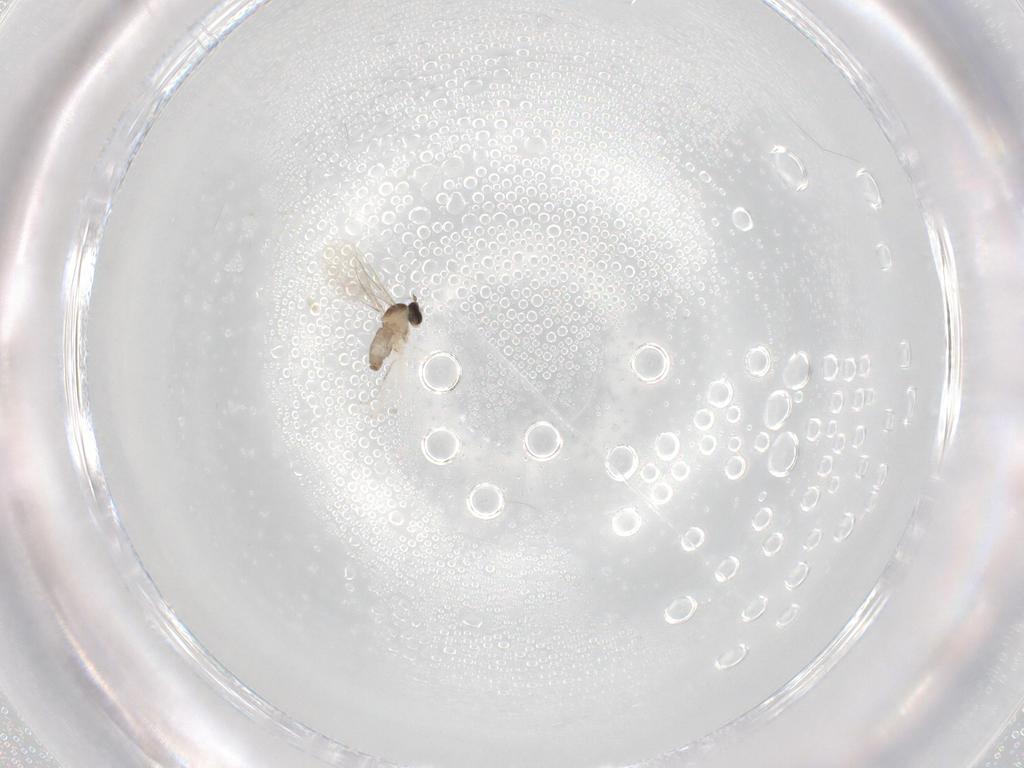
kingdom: Animalia
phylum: Arthropoda
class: Insecta
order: Diptera
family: Cecidomyiidae
